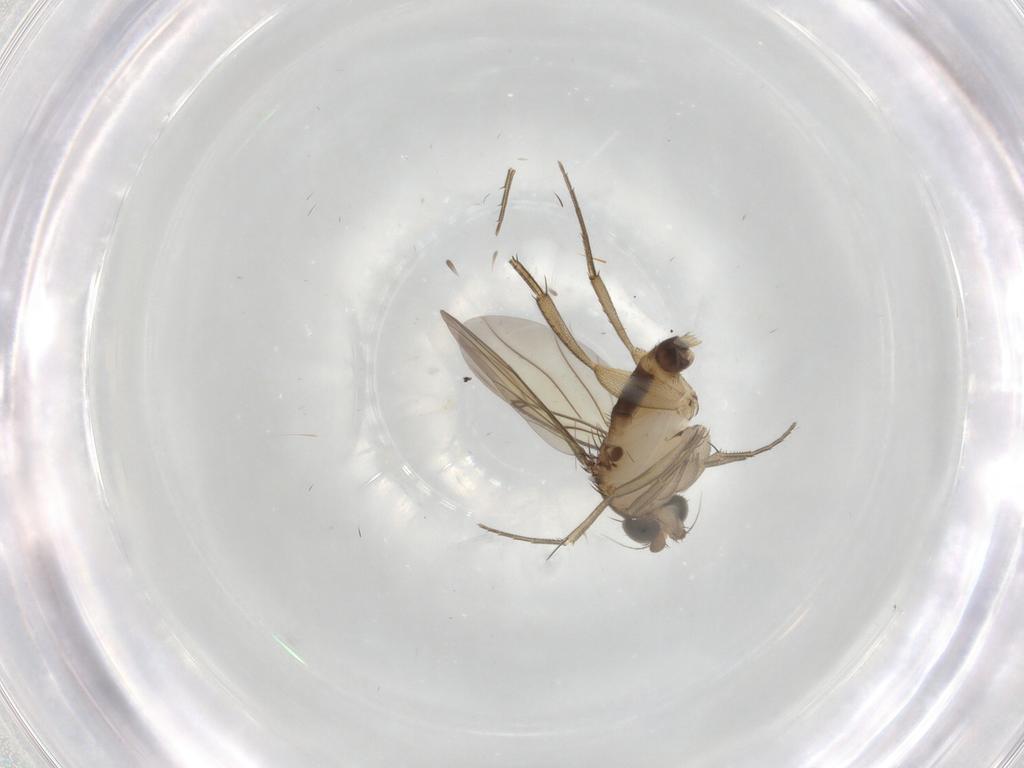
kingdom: Animalia
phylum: Arthropoda
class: Insecta
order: Diptera
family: Cecidomyiidae
